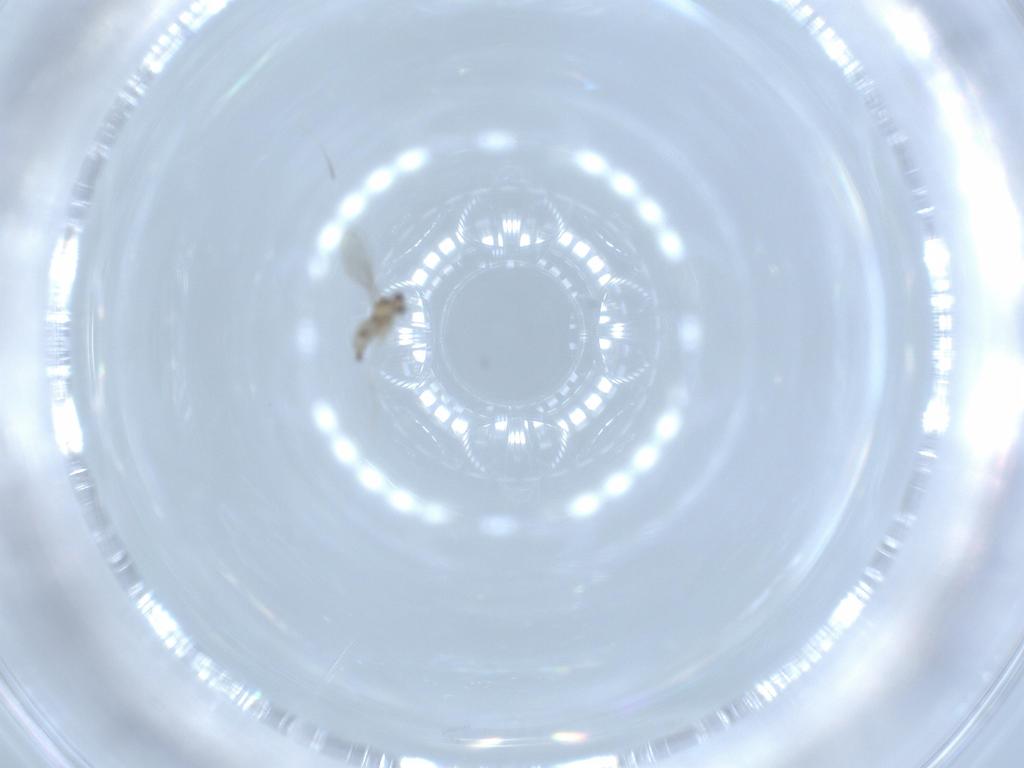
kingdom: Animalia
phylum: Arthropoda
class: Insecta
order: Diptera
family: Cecidomyiidae
